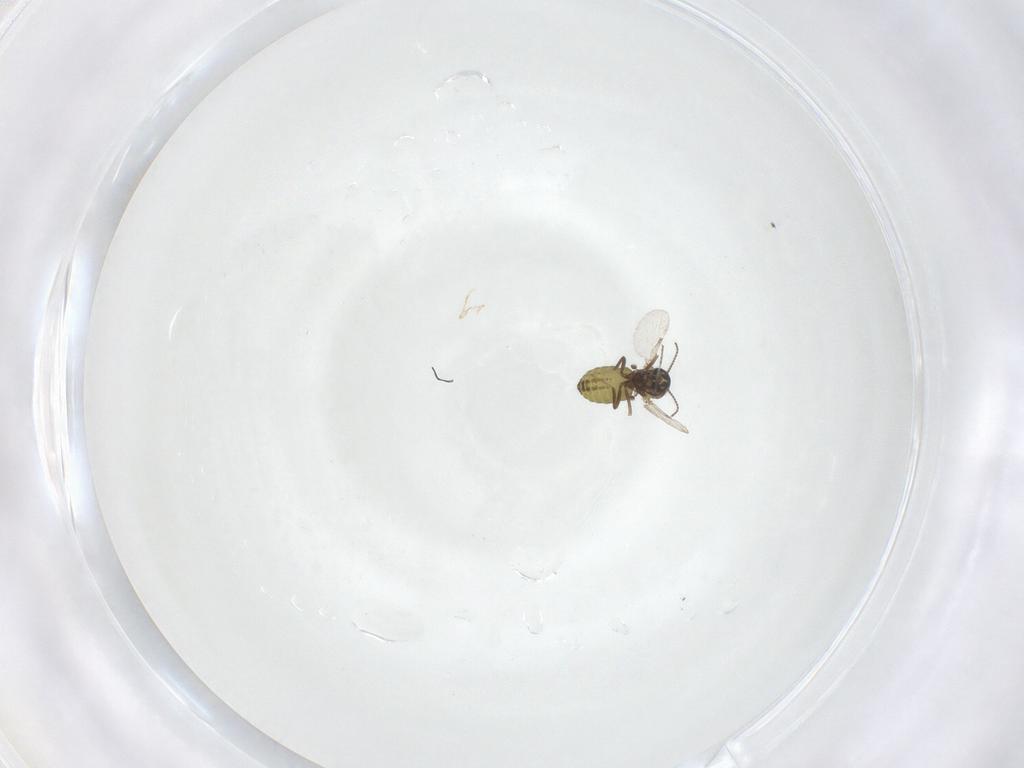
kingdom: Animalia
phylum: Arthropoda
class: Insecta
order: Diptera
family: Ceratopogonidae
